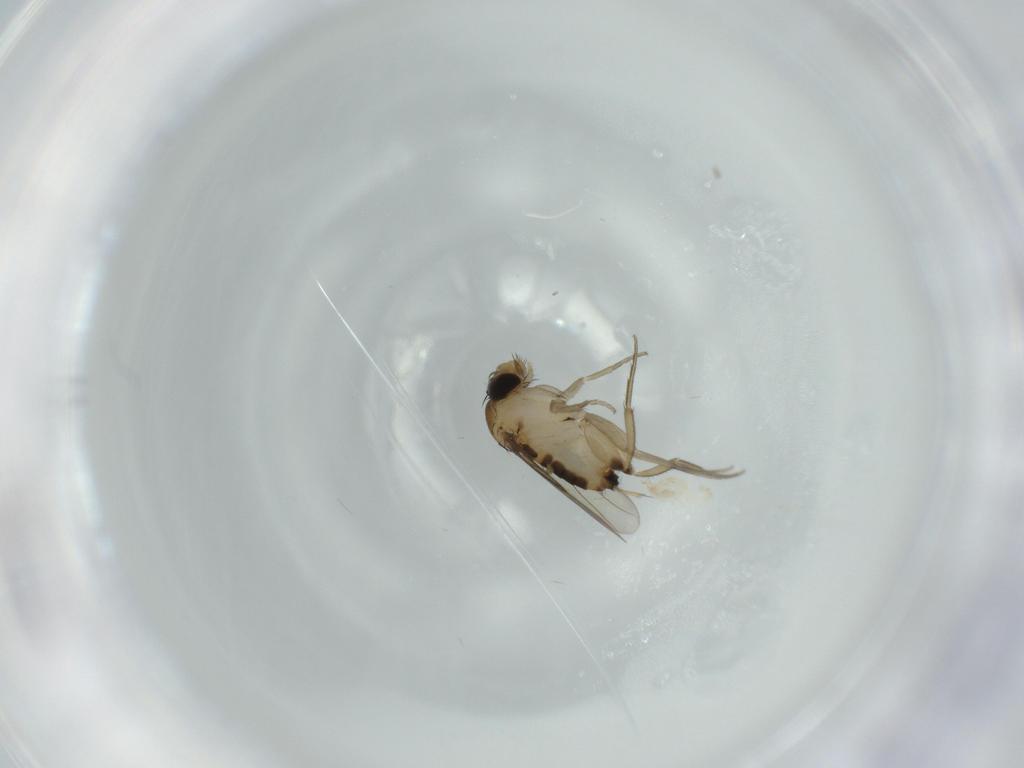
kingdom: Animalia
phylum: Arthropoda
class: Insecta
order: Diptera
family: Phoridae
